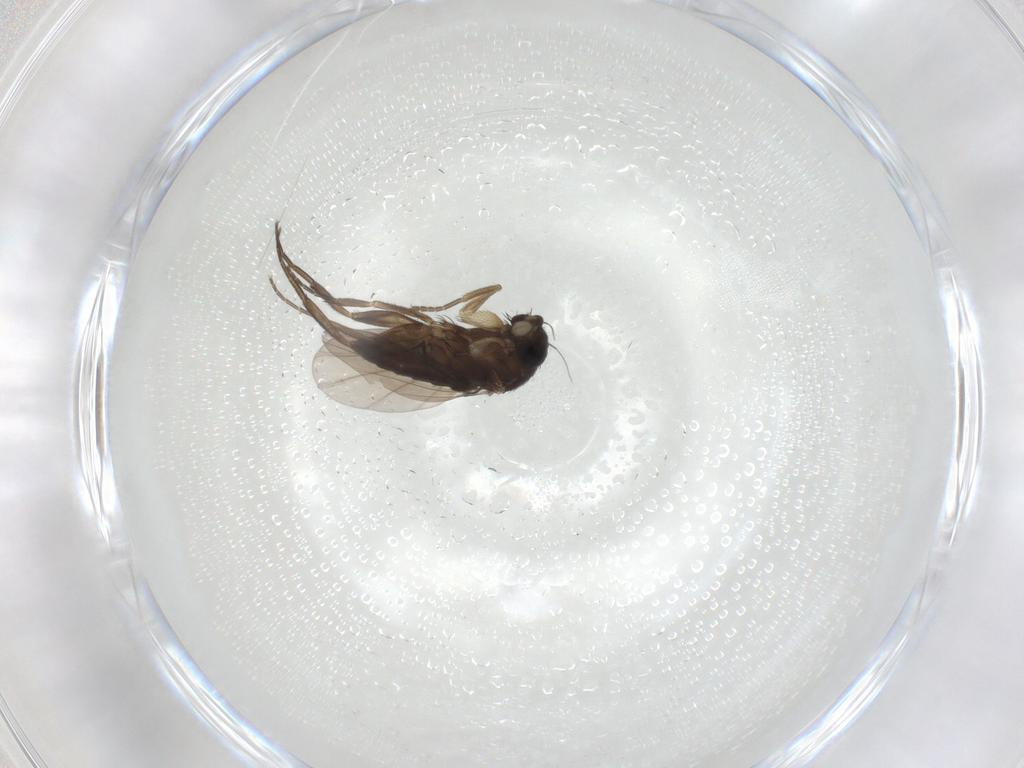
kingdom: Animalia
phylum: Arthropoda
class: Insecta
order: Diptera
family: Phoridae
